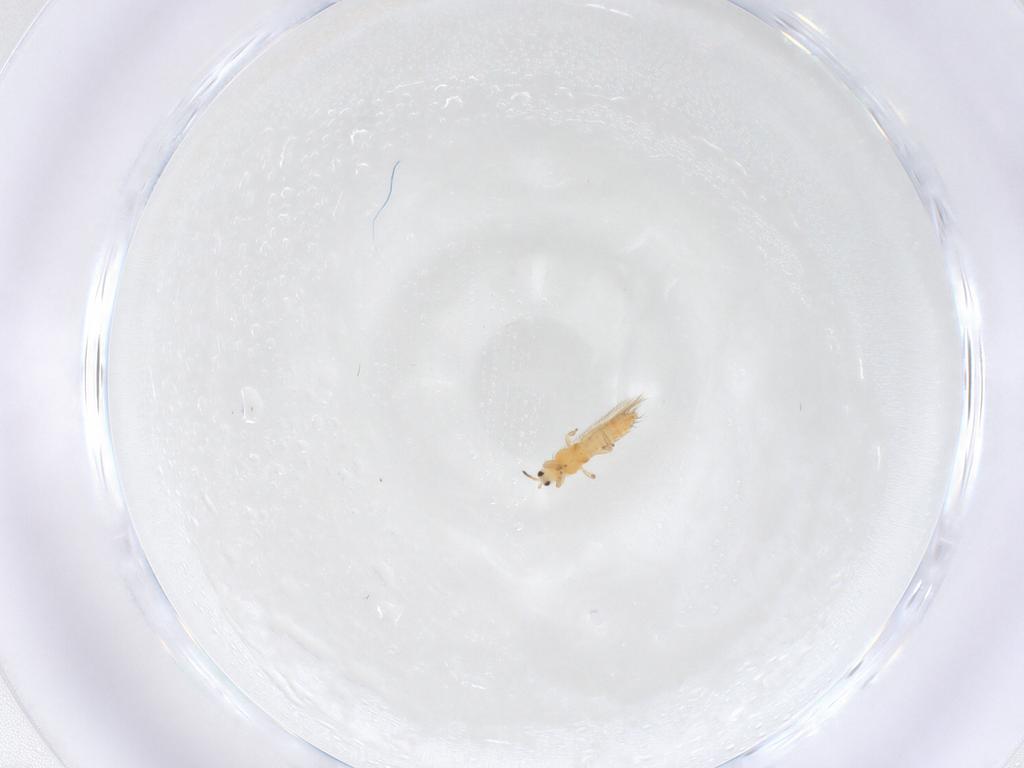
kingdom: Animalia
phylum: Arthropoda
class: Insecta
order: Thysanoptera
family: Thripidae
